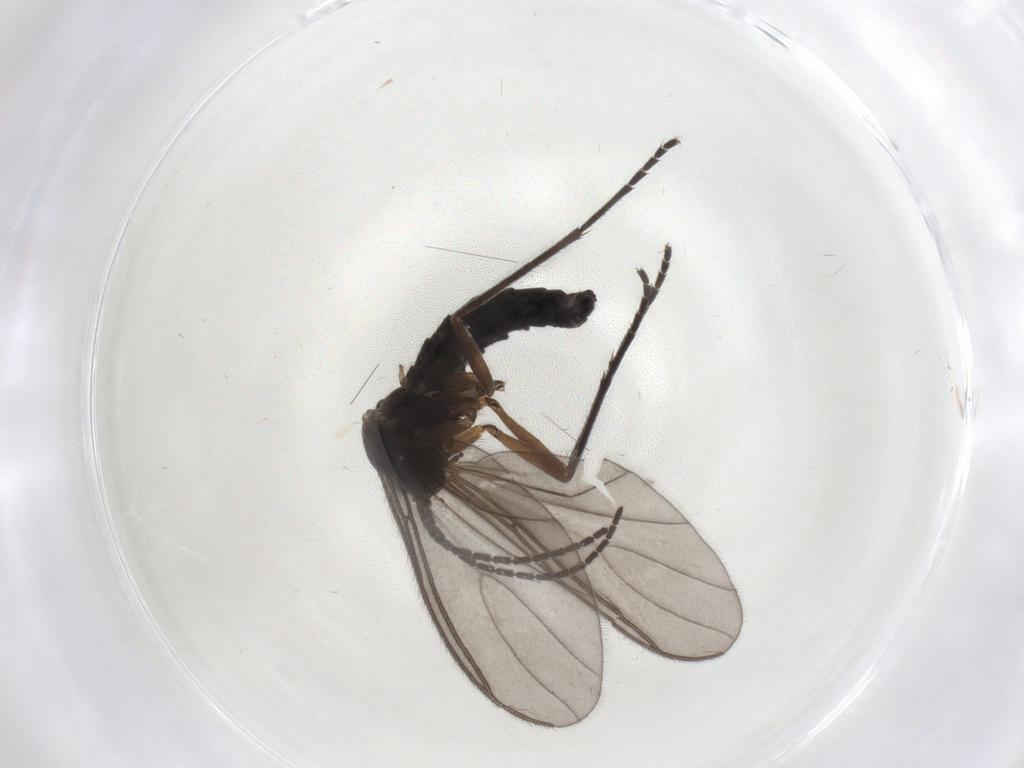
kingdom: Animalia
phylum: Arthropoda
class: Insecta
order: Diptera
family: Sciaridae
